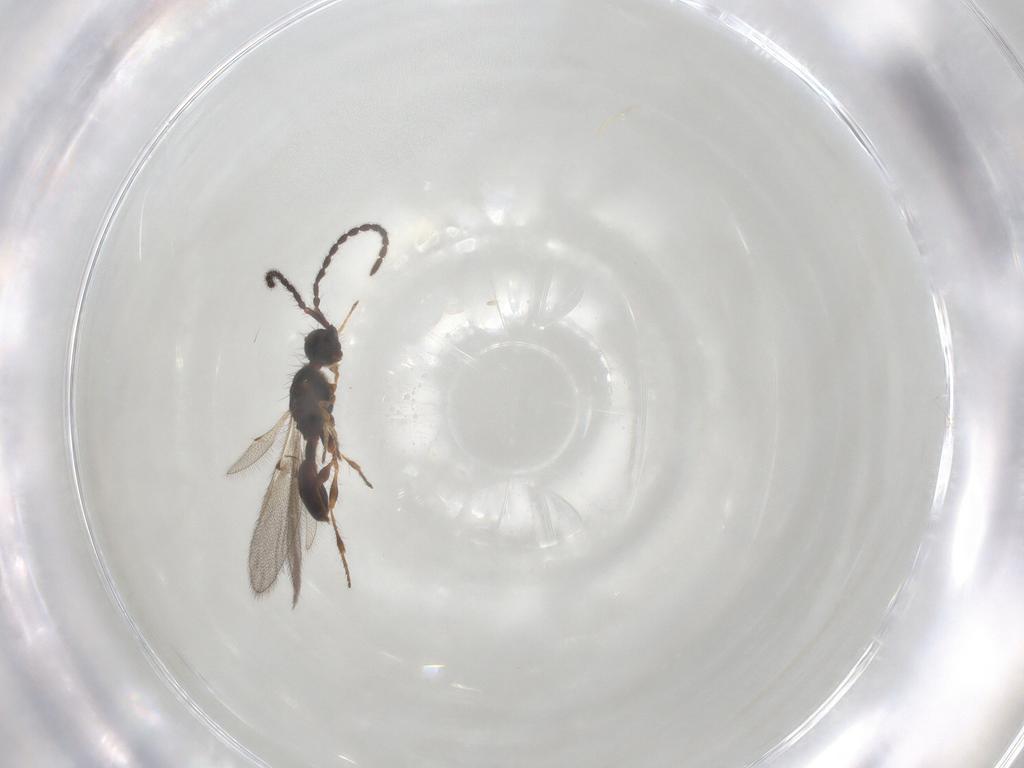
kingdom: Animalia
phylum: Arthropoda
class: Insecta
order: Hymenoptera
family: Diapriidae
